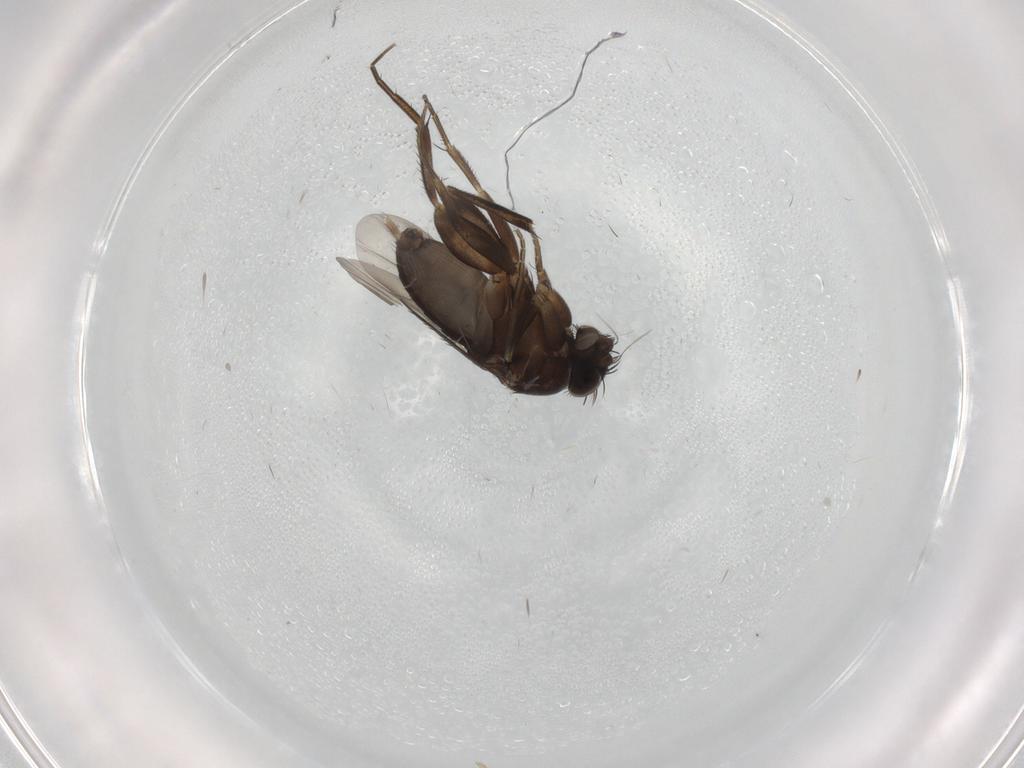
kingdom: Animalia
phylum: Arthropoda
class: Insecta
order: Diptera
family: Phoridae
